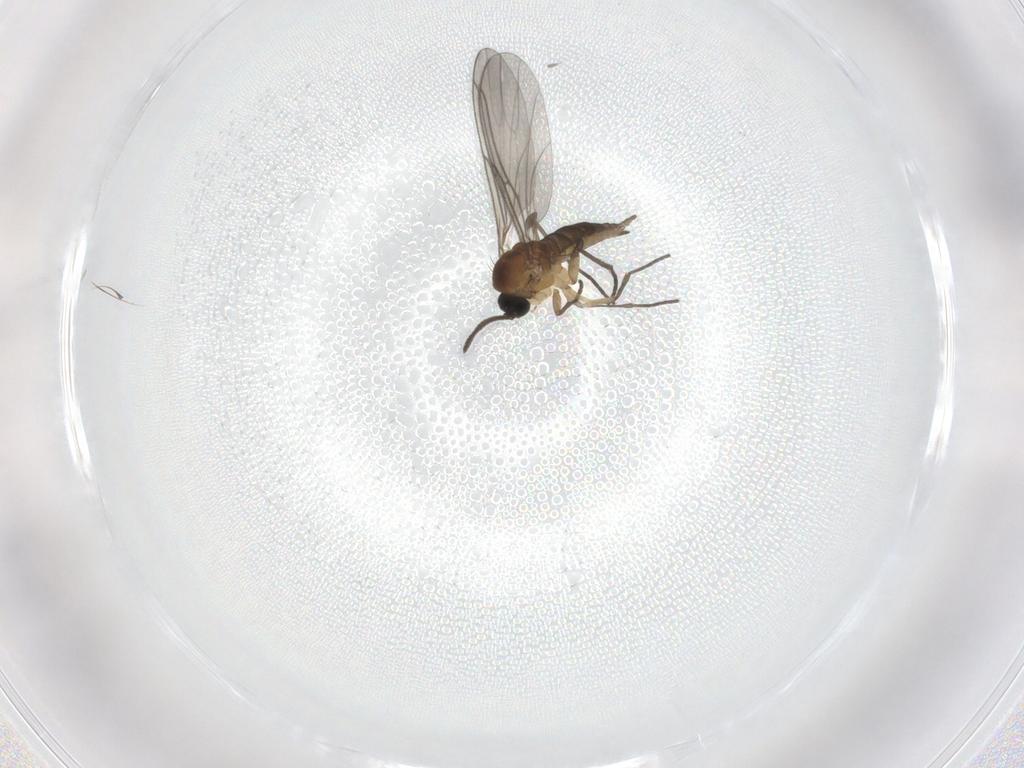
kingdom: Animalia
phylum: Arthropoda
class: Insecta
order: Diptera
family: Sciaridae
